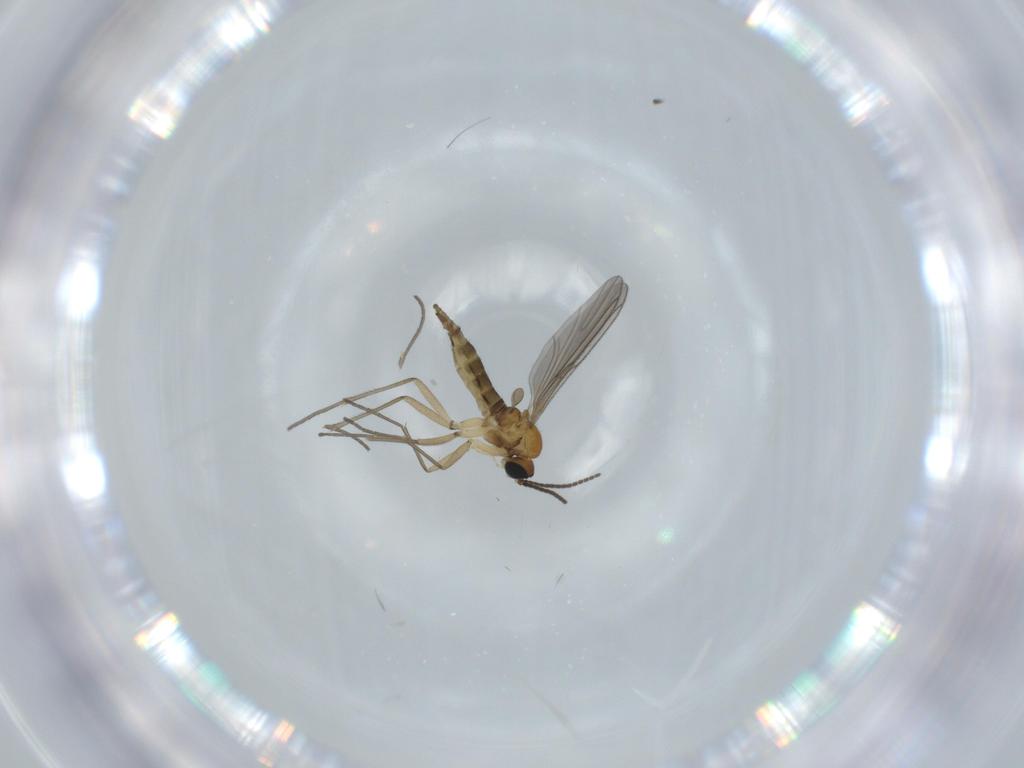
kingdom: Animalia
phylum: Arthropoda
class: Insecta
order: Diptera
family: Sciaridae
